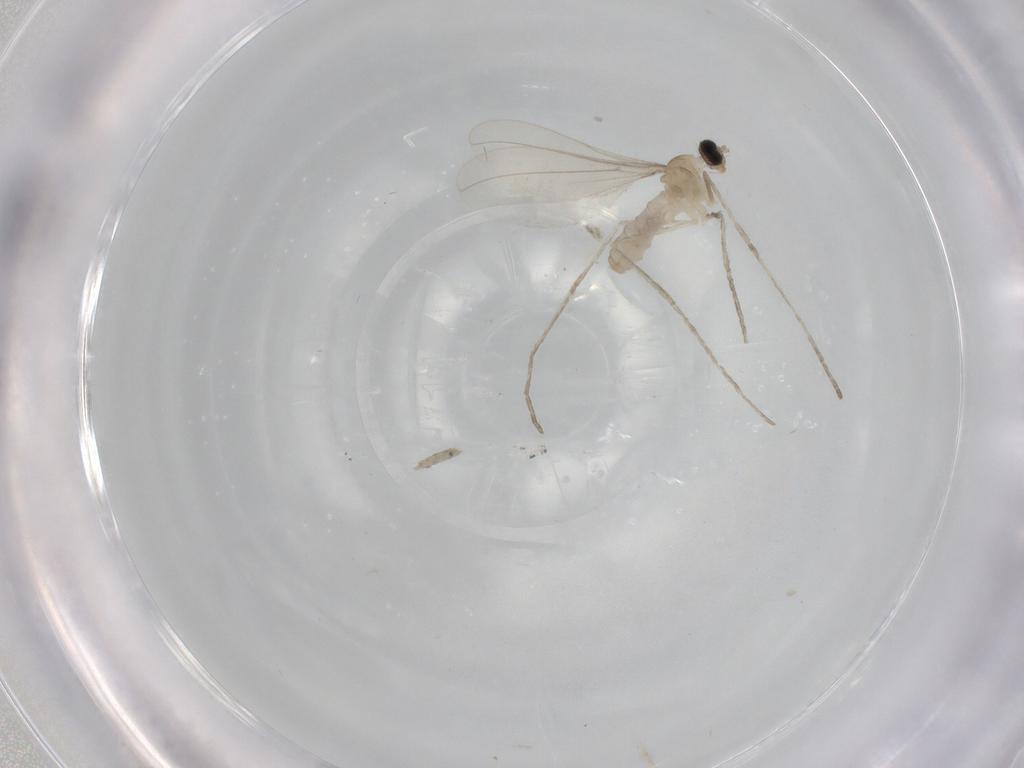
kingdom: Animalia
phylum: Arthropoda
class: Insecta
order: Diptera
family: Cecidomyiidae
